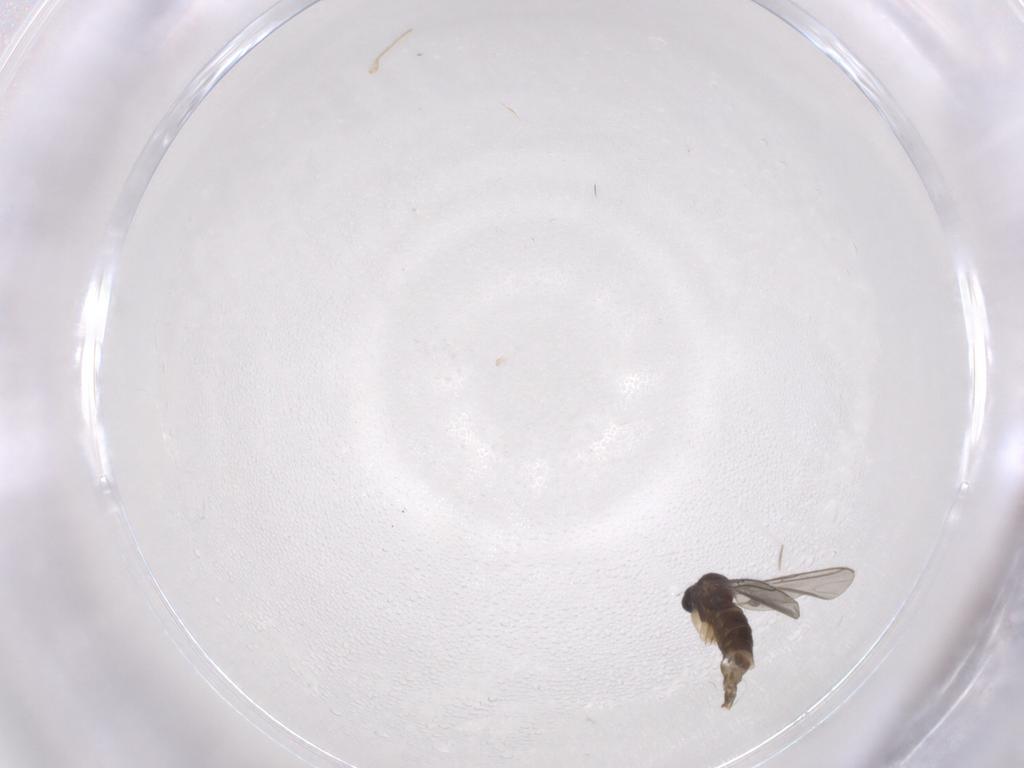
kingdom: Animalia
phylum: Arthropoda
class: Insecta
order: Diptera
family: Sciaridae
